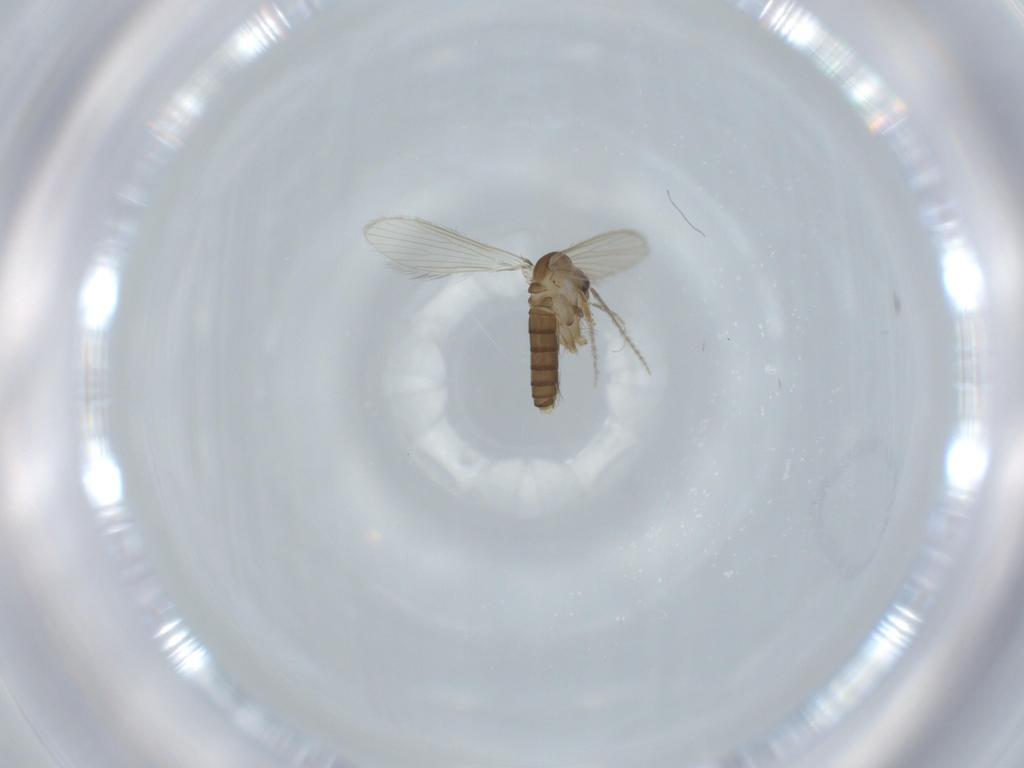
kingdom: Animalia
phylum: Arthropoda
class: Insecta
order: Diptera
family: Psychodidae
